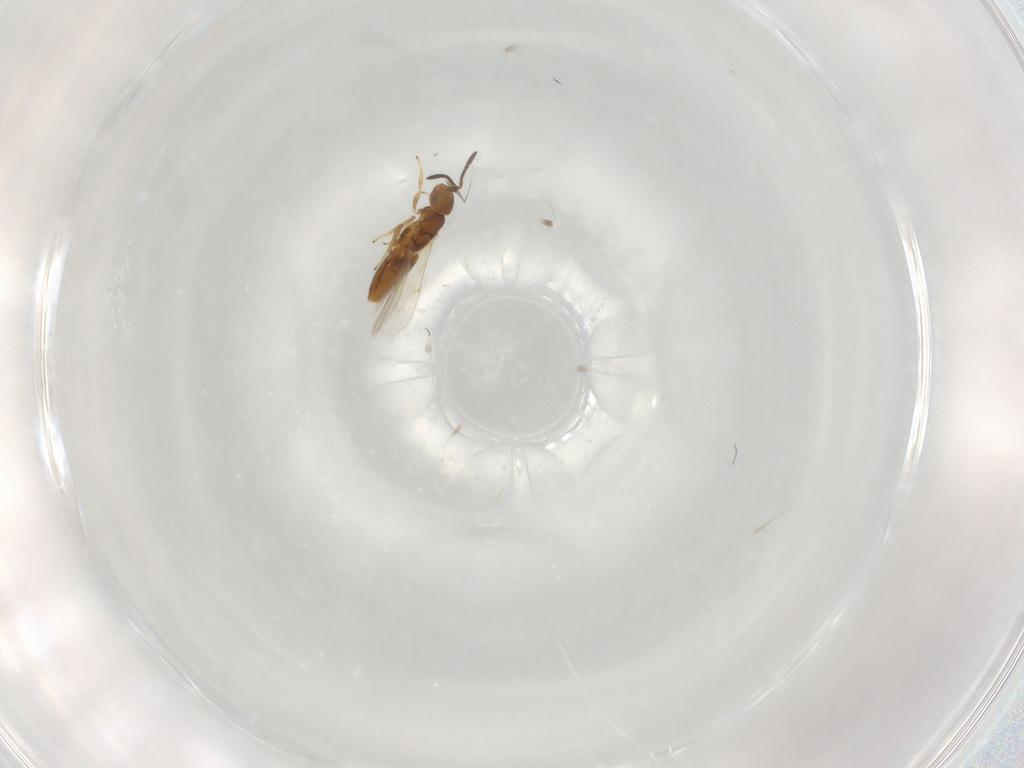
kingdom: Animalia
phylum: Arthropoda
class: Insecta
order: Hymenoptera
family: Encyrtidae
